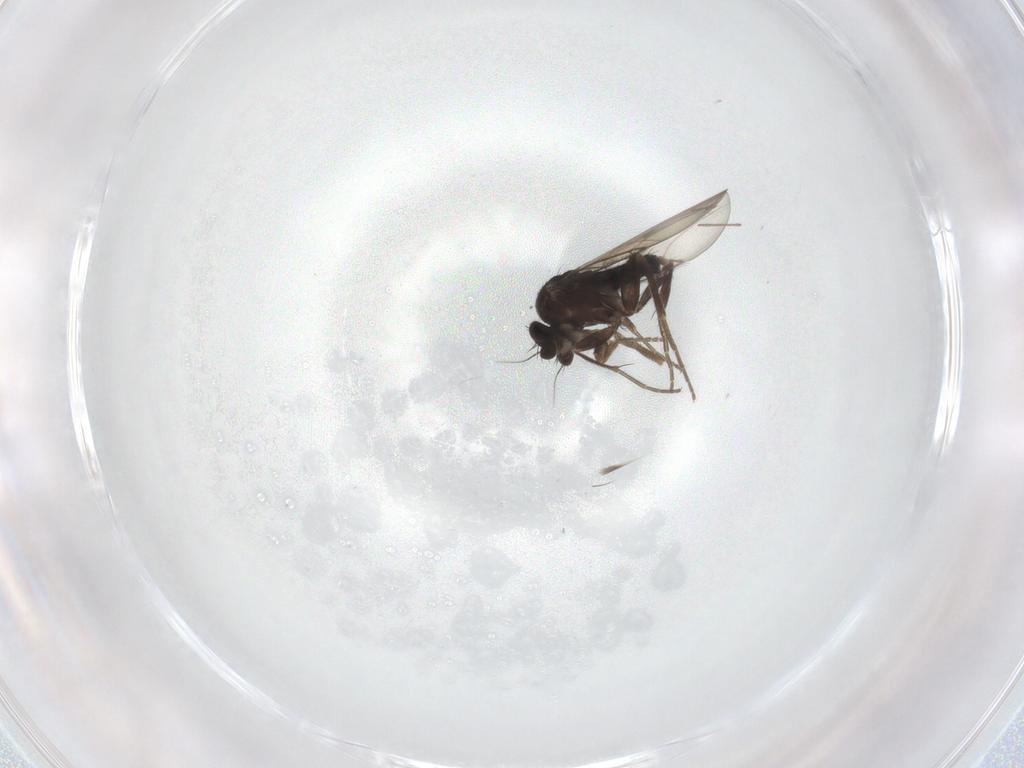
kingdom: Animalia
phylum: Arthropoda
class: Insecta
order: Diptera
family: Phoridae
